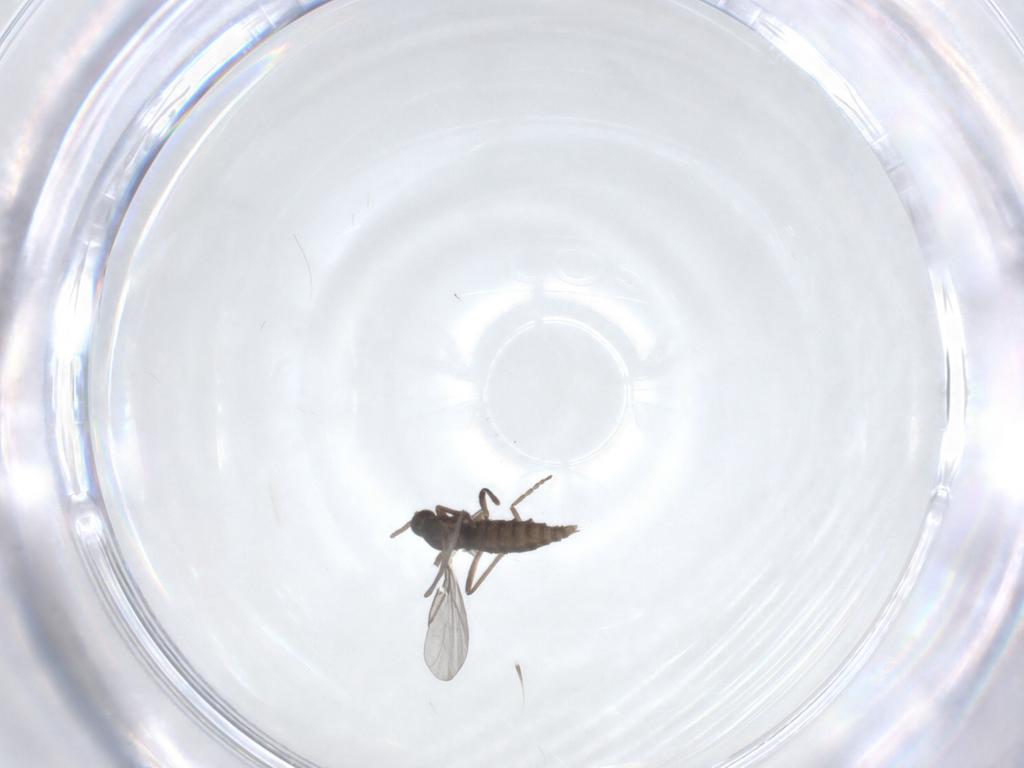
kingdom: Animalia
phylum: Arthropoda
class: Insecta
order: Diptera
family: Cecidomyiidae
